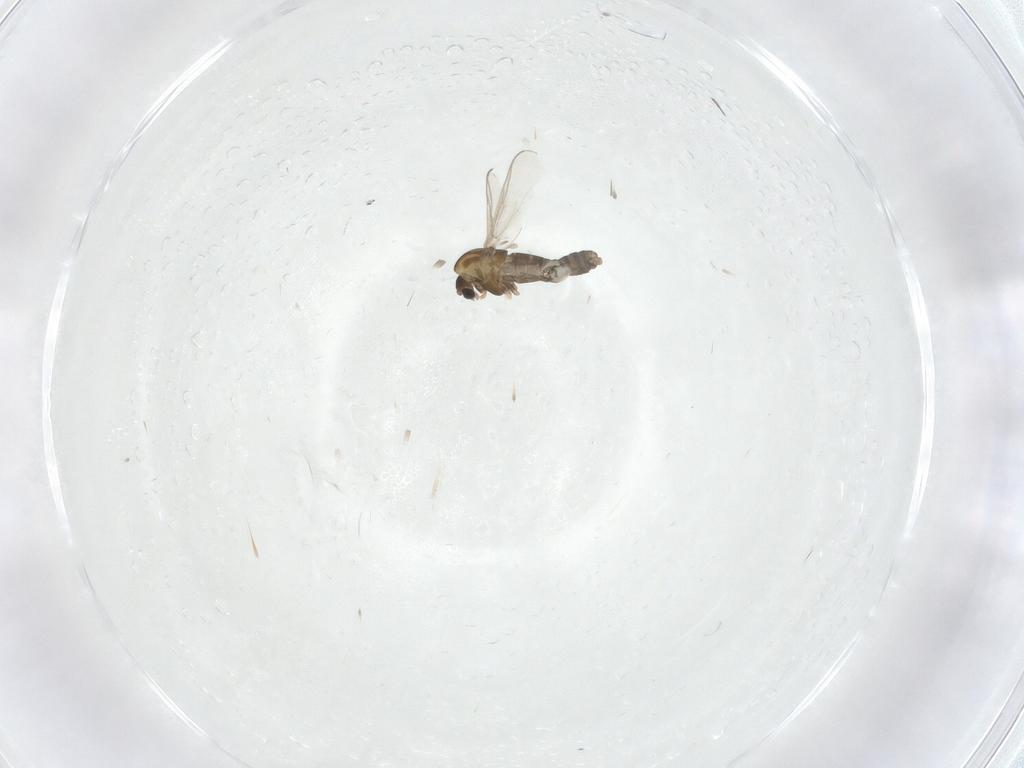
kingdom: Animalia
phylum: Arthropoda
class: Insecta
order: Diptera
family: Chironomidae
